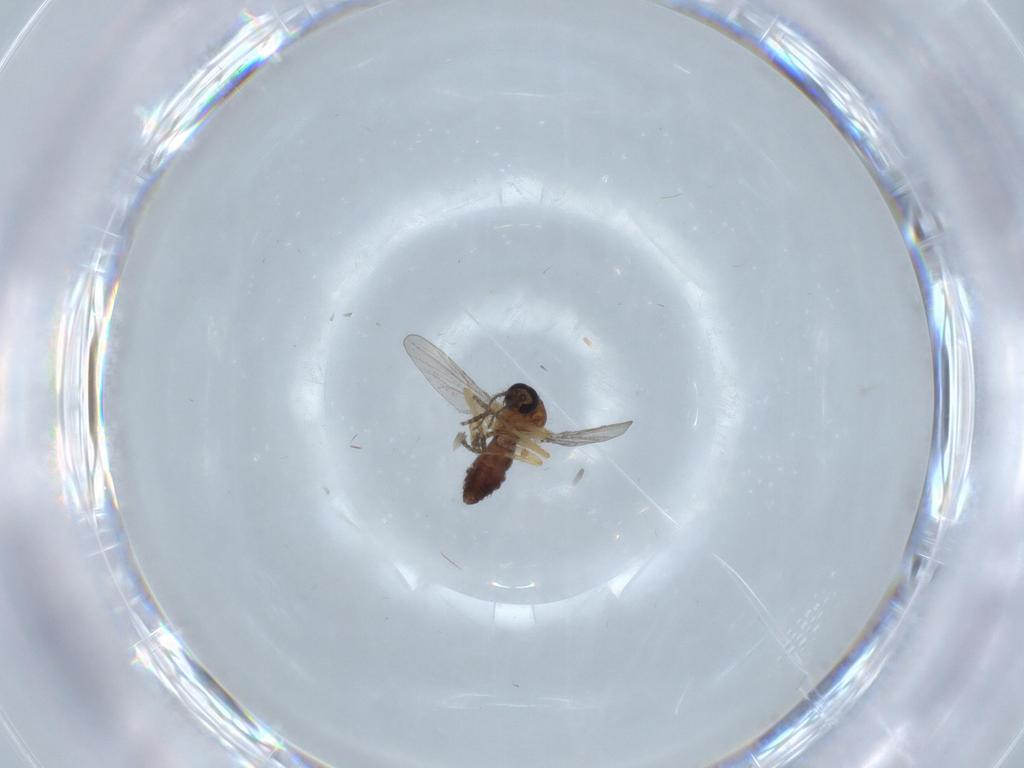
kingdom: Animalia
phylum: Arthropoda
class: Insecta
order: Diptera
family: Ceratopogonidae
